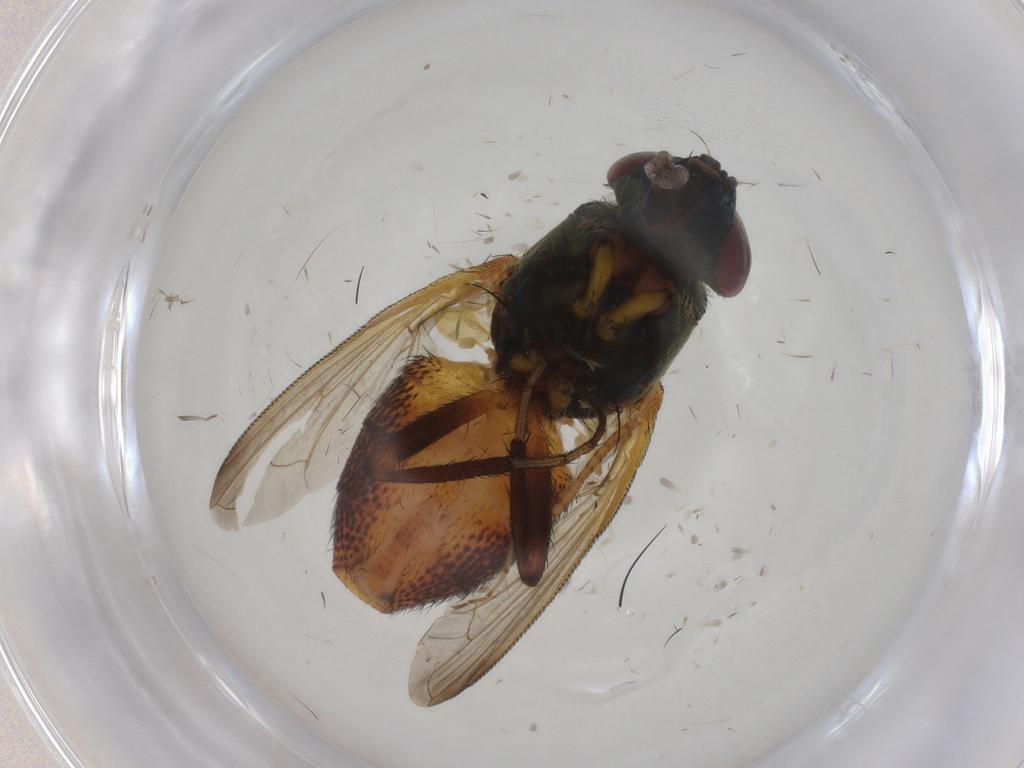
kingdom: Animalia
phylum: Arthropoda
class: Insecta
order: Diptera
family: Calliphoridae
